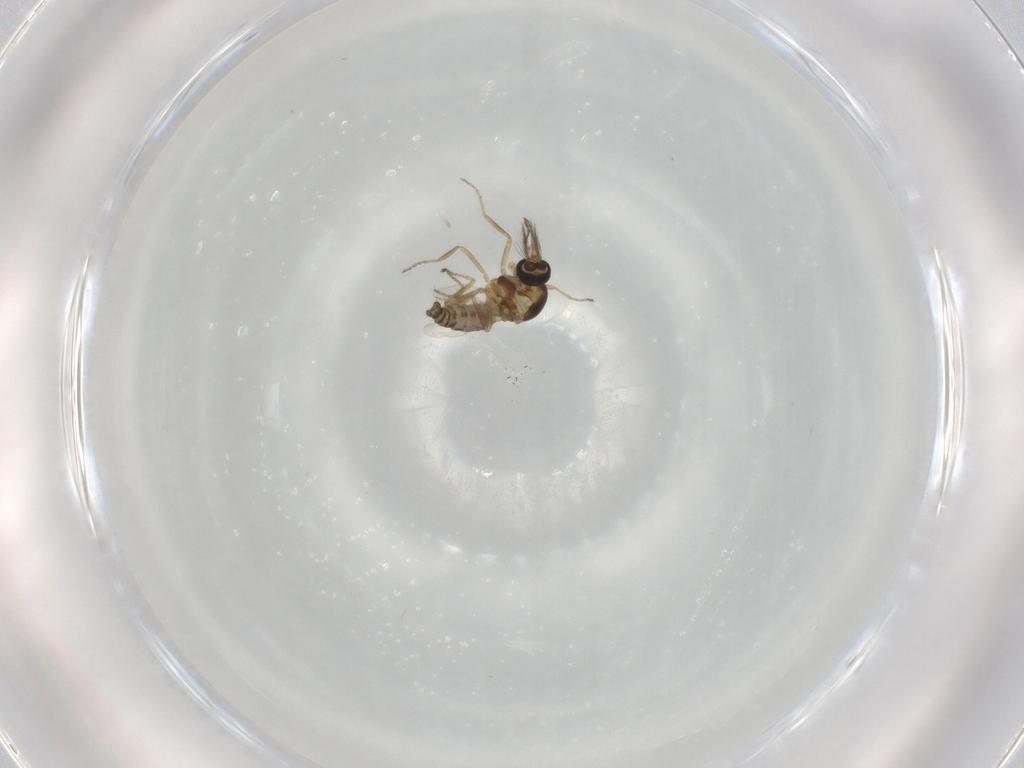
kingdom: Animalia
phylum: Arthropoda
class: Insecta
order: Diptera
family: Ceratopogonidae
